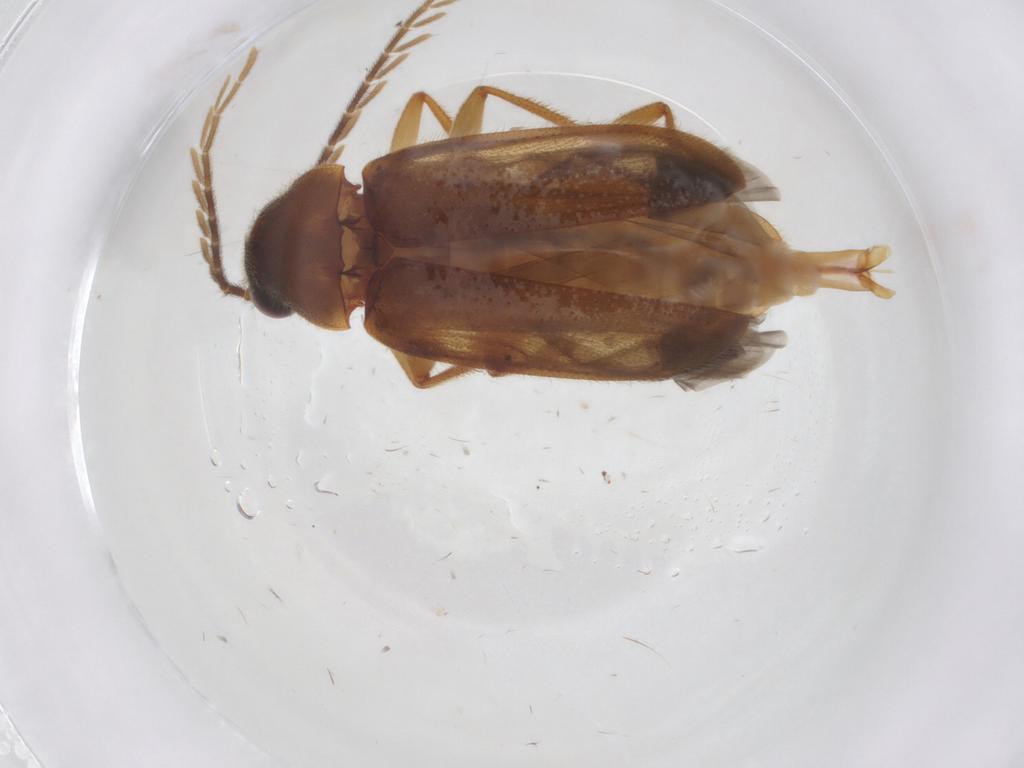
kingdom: Animalia
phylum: Arthropoda
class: Insecta
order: Coleoptera
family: Ptilodactylidae
